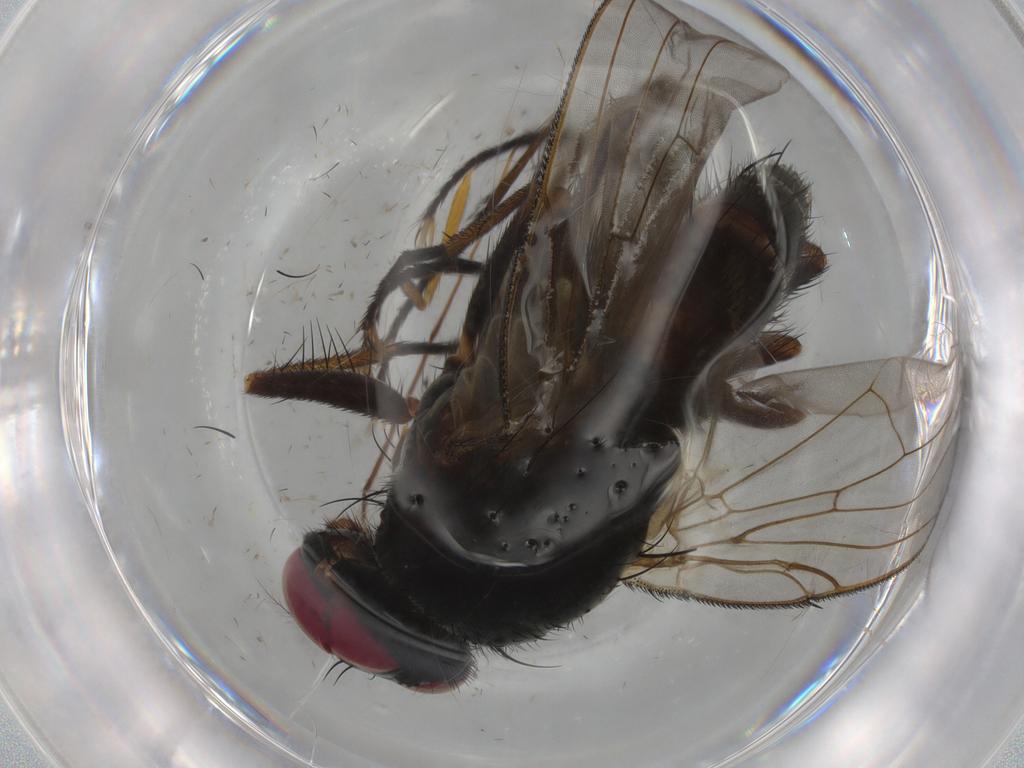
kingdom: Animalia
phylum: Arthropoda
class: Insecta
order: Diptera
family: Muscidae
